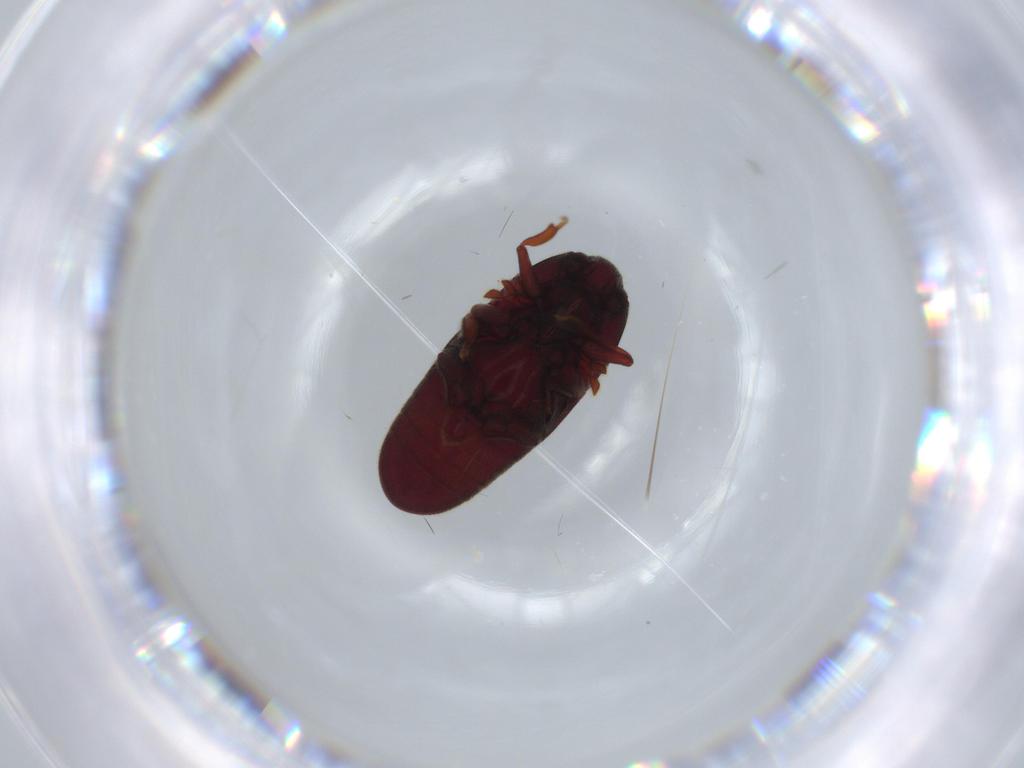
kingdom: Animalia
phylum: Arthropoda
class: Insecta
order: Coleoptera
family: Throscidae
